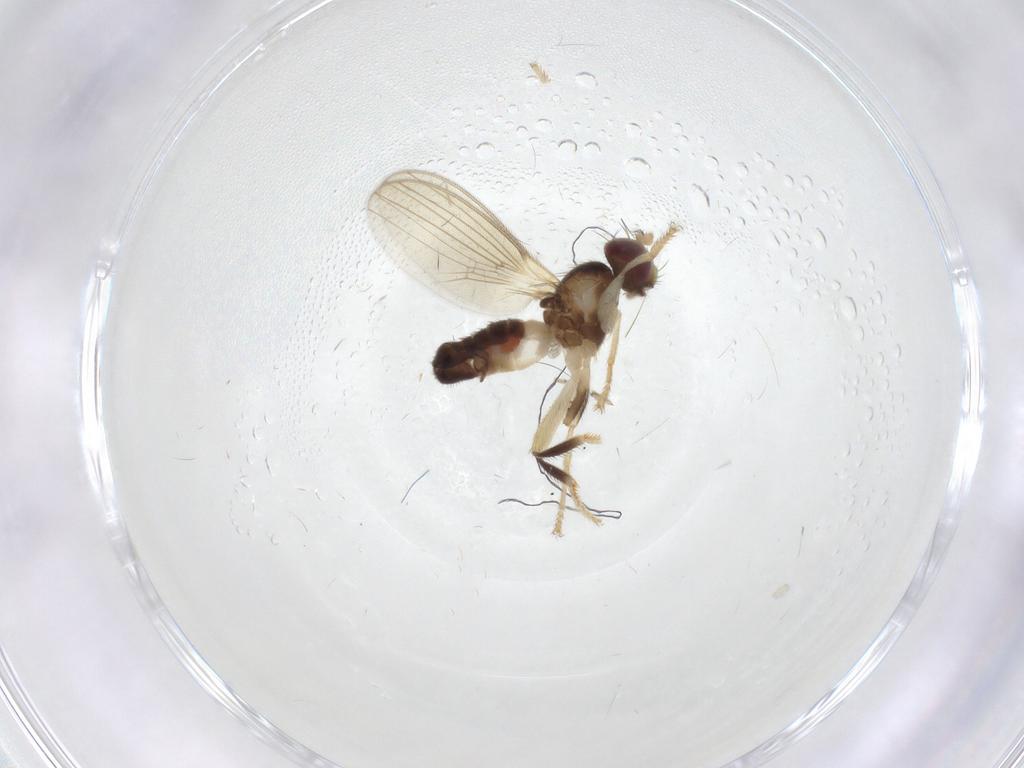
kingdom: Animalia
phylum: Arthropoda
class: Insecta
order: Diptera
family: Periscelididae
